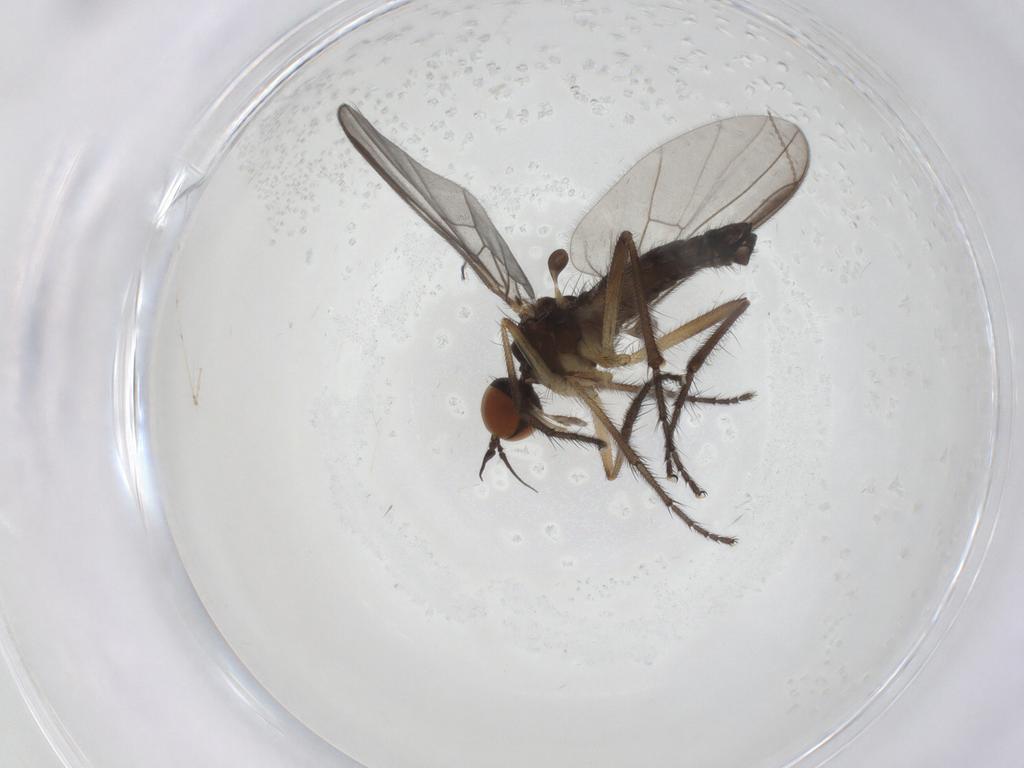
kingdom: Animalia
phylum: Arthropoda
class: Insecta
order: Diptera
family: Empididae
